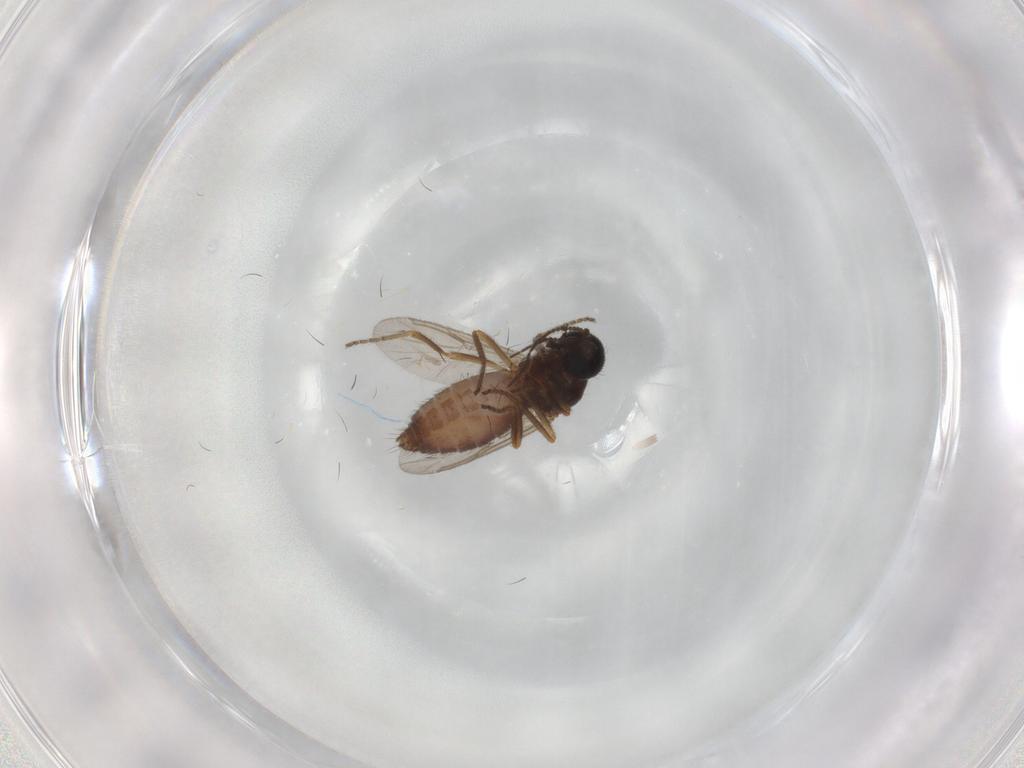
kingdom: Animalia
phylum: Arthropoda
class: Insecta
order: Diptera
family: Ceratopogonidae
